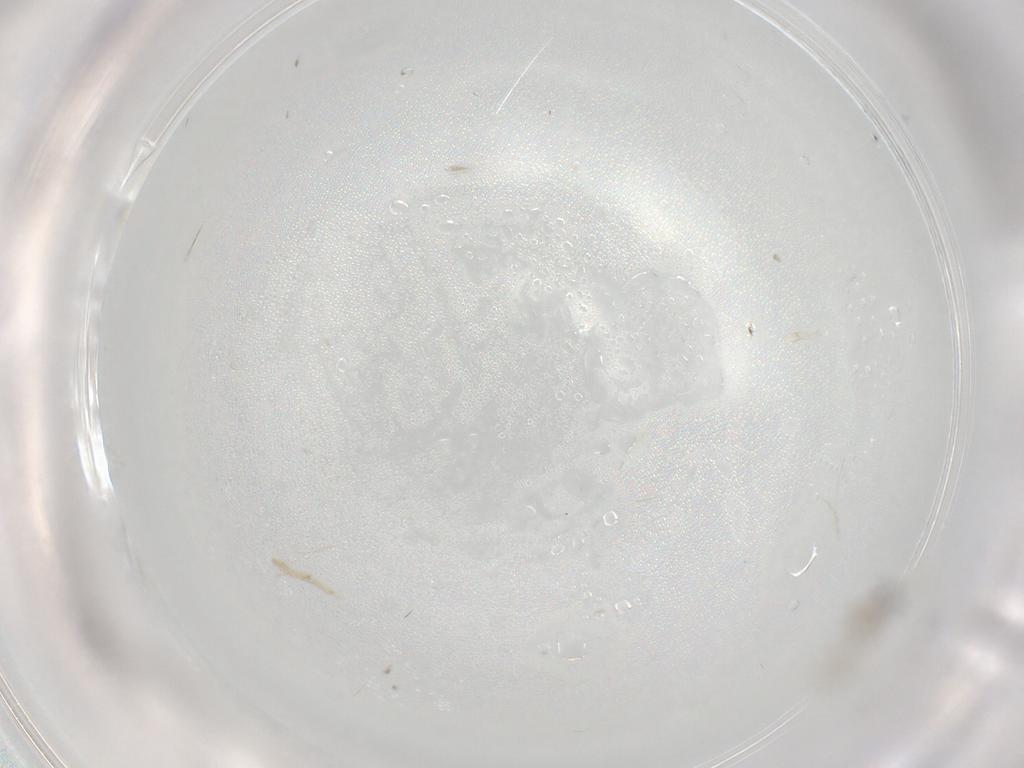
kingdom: Animalia
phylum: Arthropoda
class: Insecta
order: Diptera
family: Cecidomyiidae
